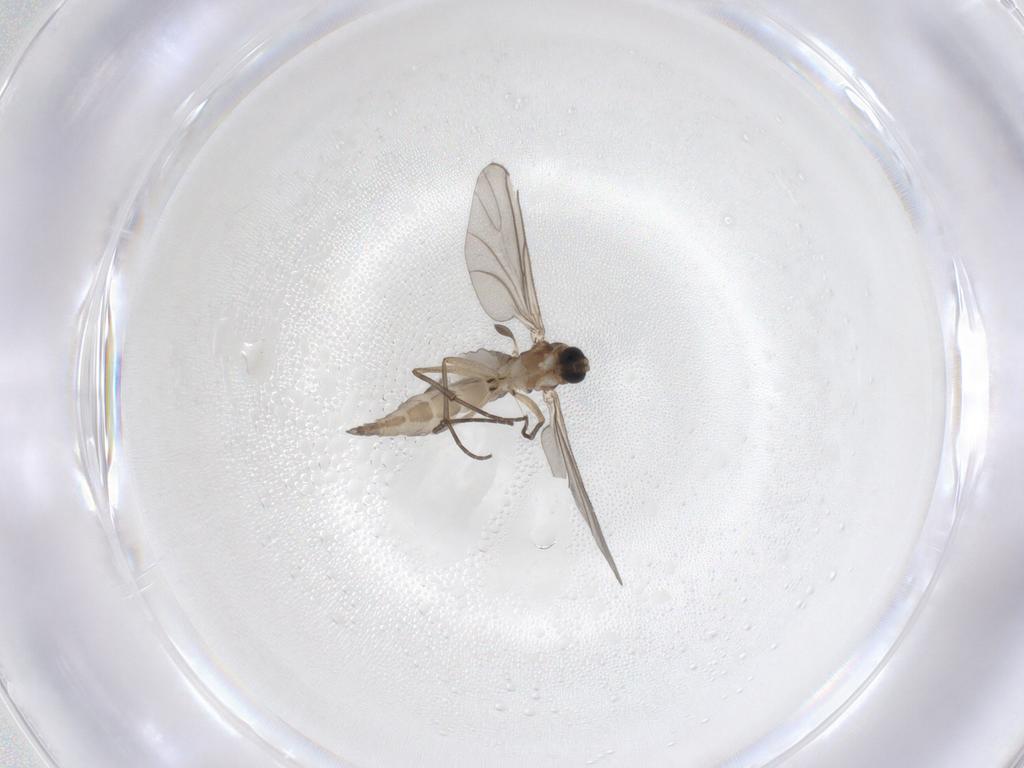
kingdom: Animalia
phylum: Arthropoda
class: Insecta
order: Diptera
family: Sciaridae
